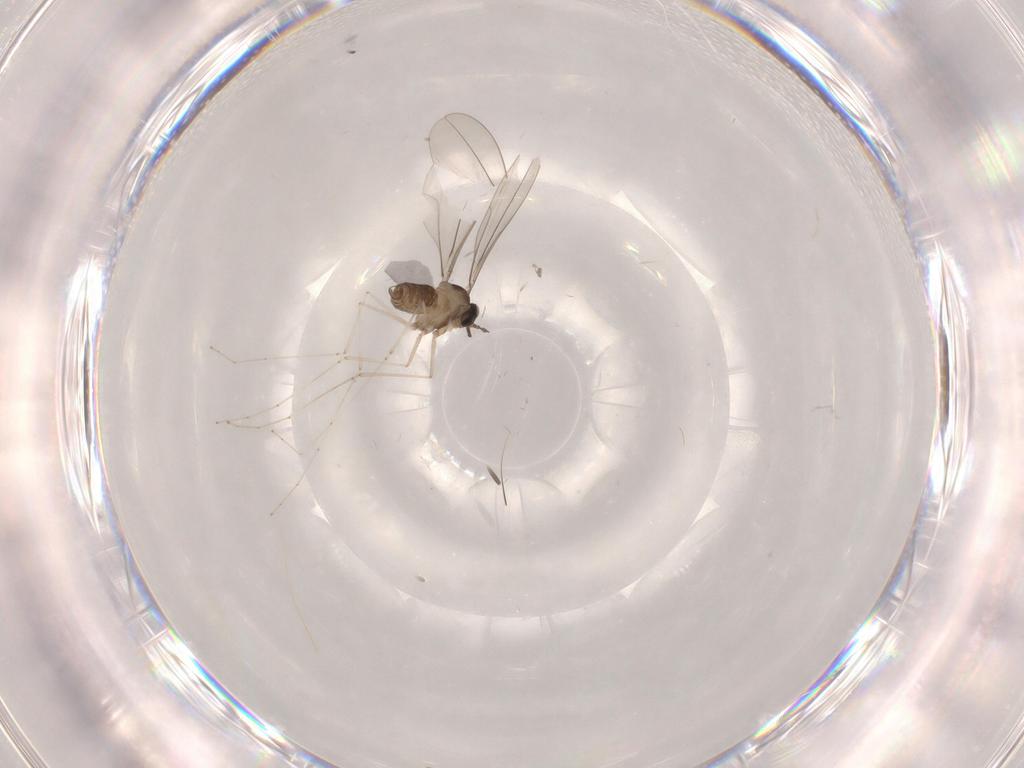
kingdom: Animalia
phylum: Arthropoda
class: Insecta
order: Diptera
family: Cecidomyiidae
